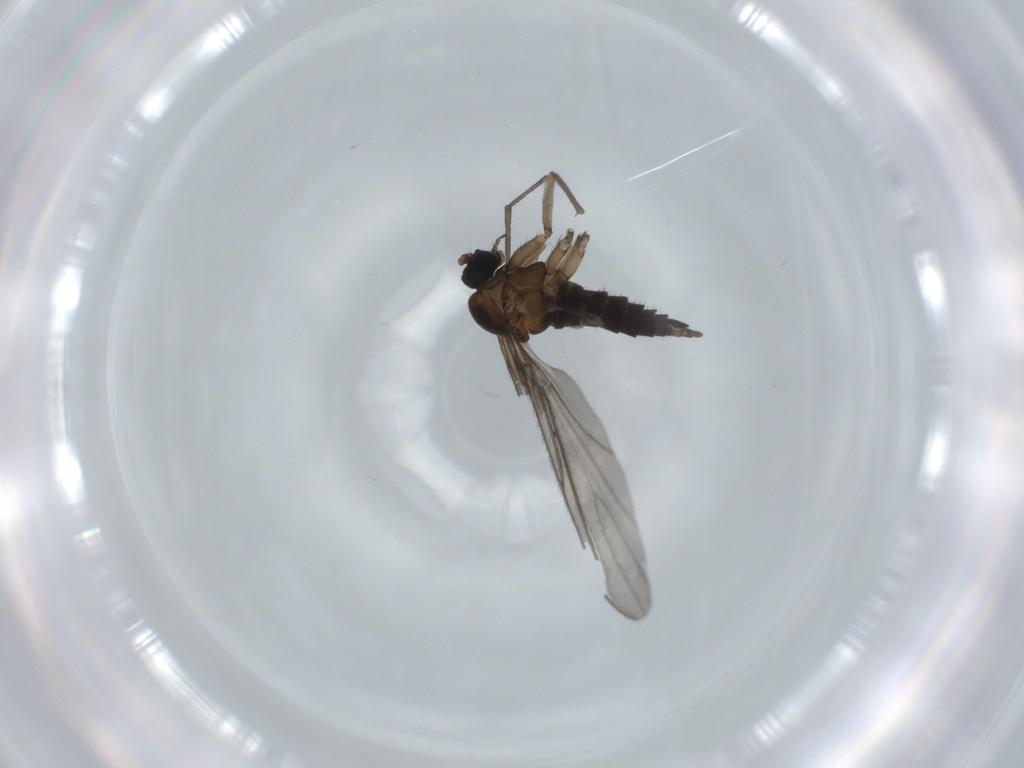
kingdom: Animalia
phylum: Arthropoda
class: Insecta
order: Diptera
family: Sciaridae
